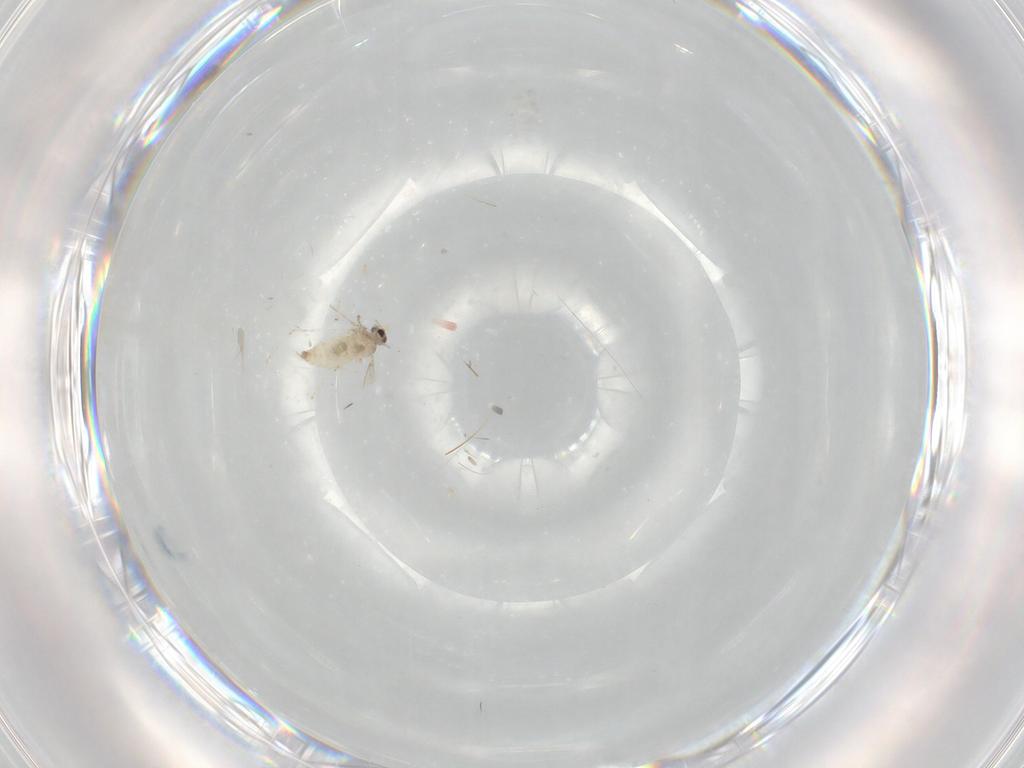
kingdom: Animalia
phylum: Arthropoda
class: Insecta
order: Diptera
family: Cecidomyiidae
